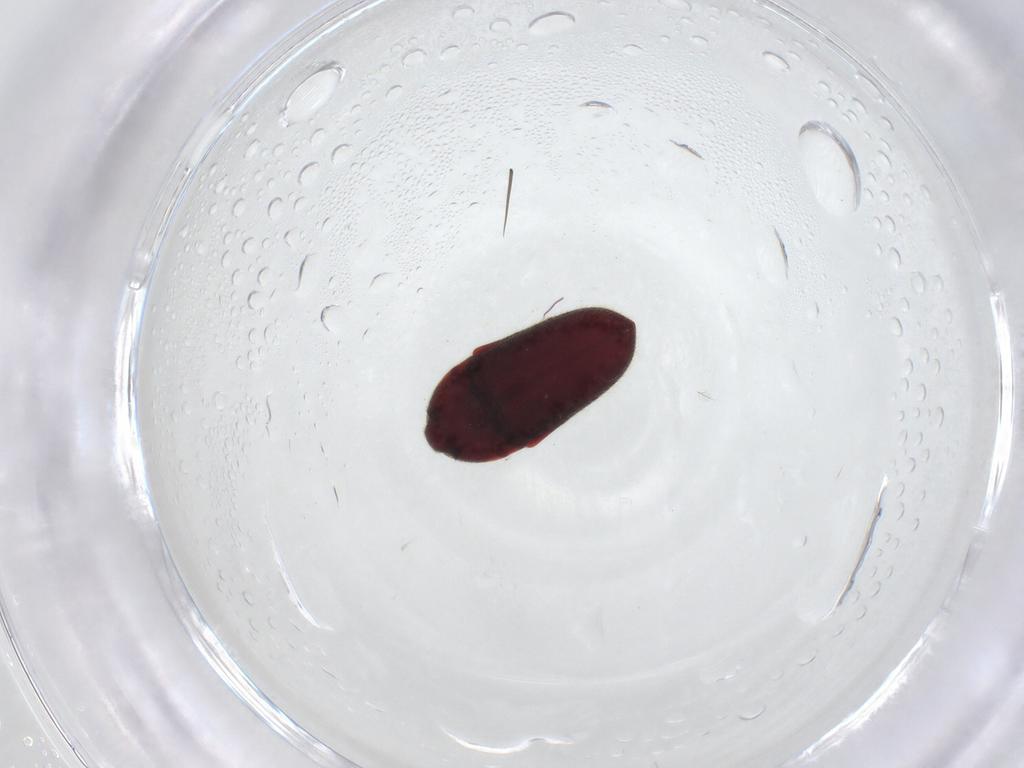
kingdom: Animalia
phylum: Arthropoda
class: Insecta
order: Coleoptera
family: Throscidae
